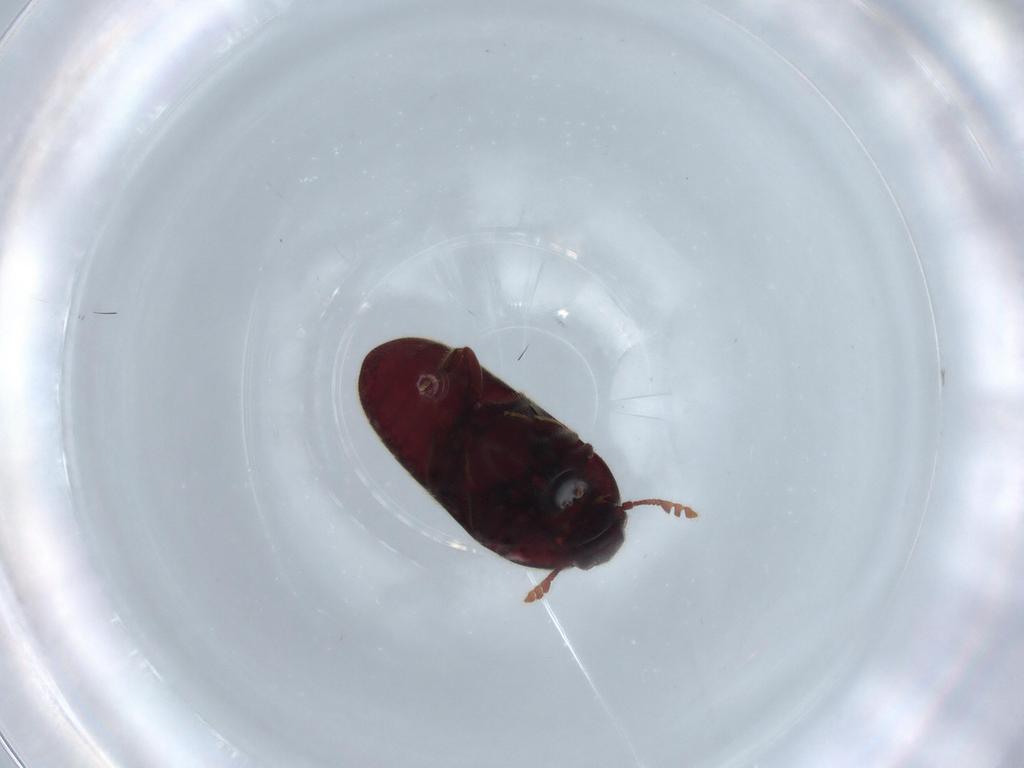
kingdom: Animalia
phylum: Arthropoda
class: Insecta
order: Coleoptera
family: Throscidae
